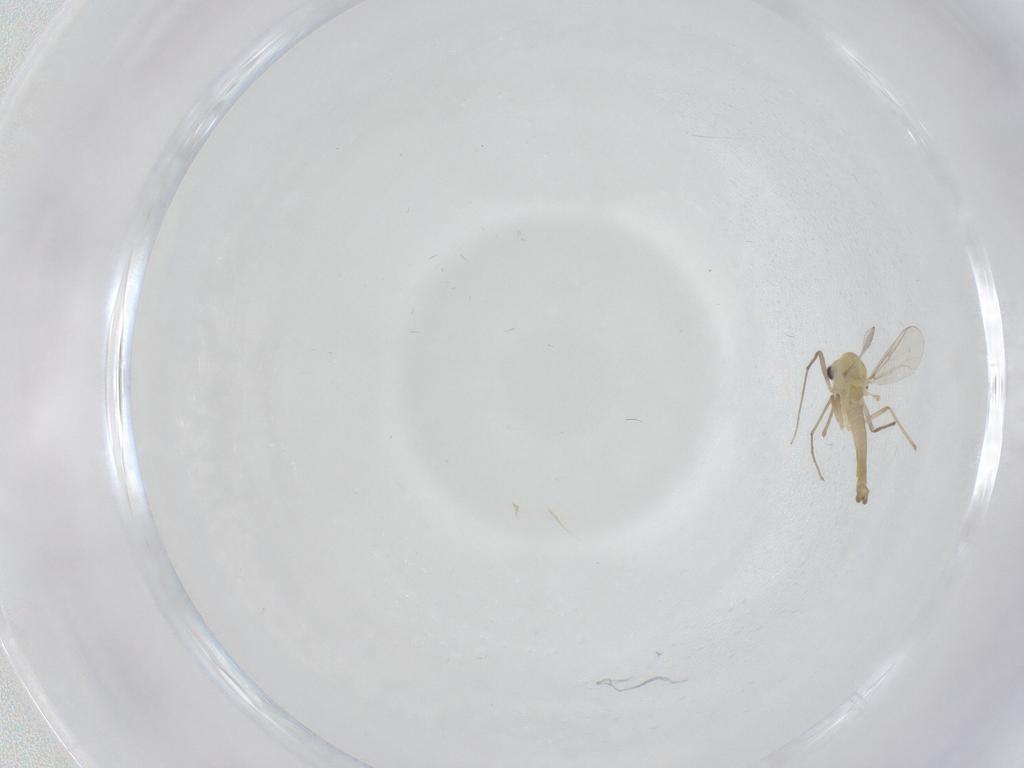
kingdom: Animalia
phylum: Arthropoda
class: Insecta
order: Diptera
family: Chironomidae
